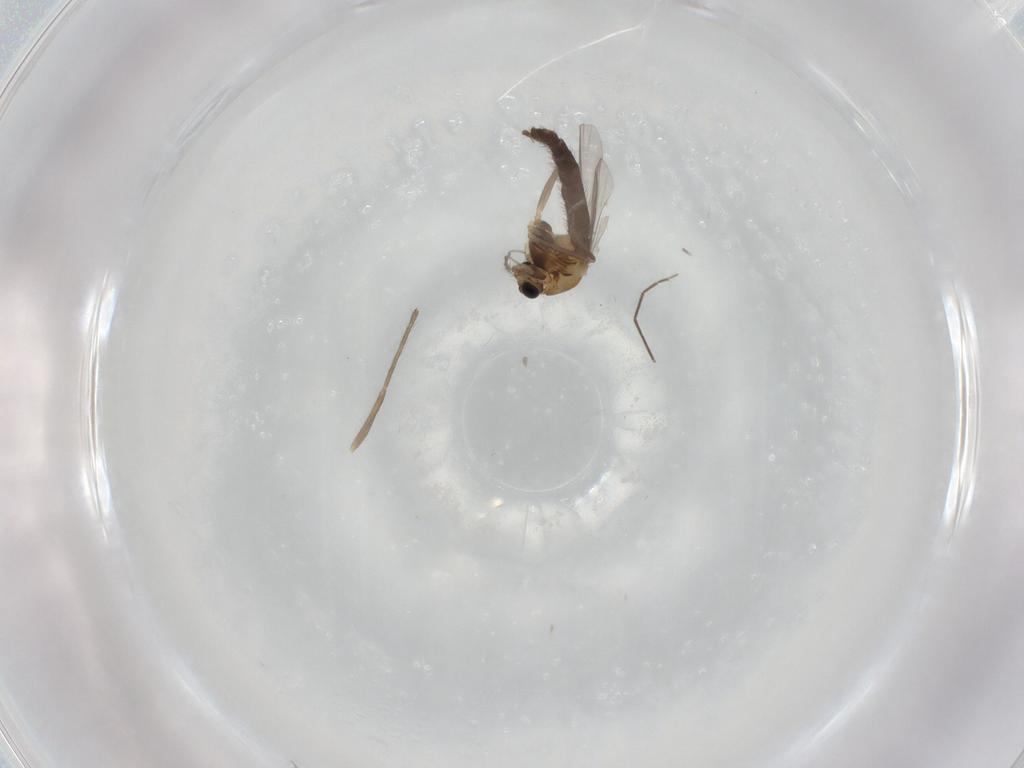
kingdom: Animalia
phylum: Arthropoda
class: Insecta
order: Diptera
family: Chironomidae
